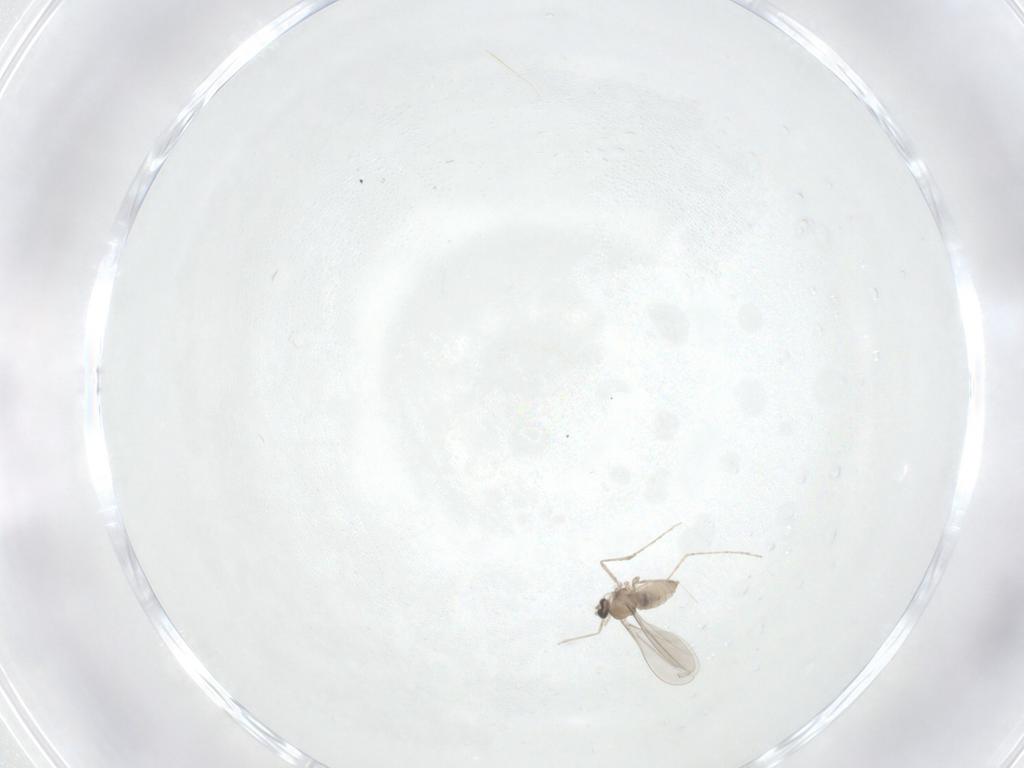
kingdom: Animalia
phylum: Arthropoda
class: Insecta
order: Diptera
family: Cecidomyiidae
